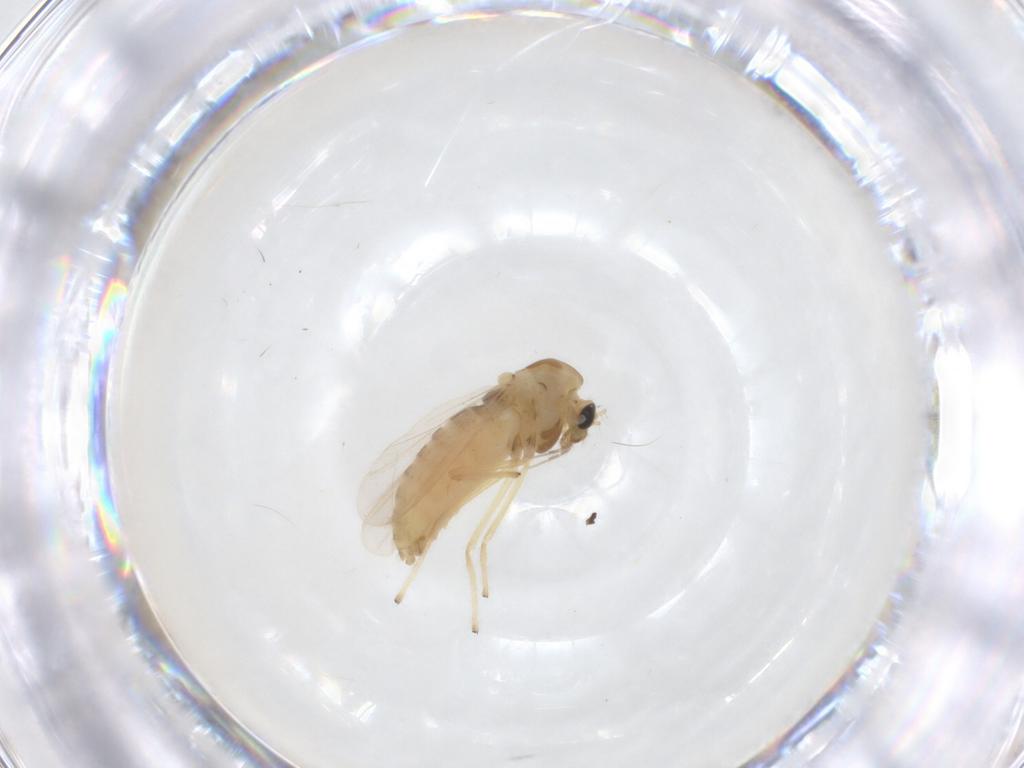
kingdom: Animalia
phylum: Arthropoda
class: Insecta
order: Diptera
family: Chironomidae
